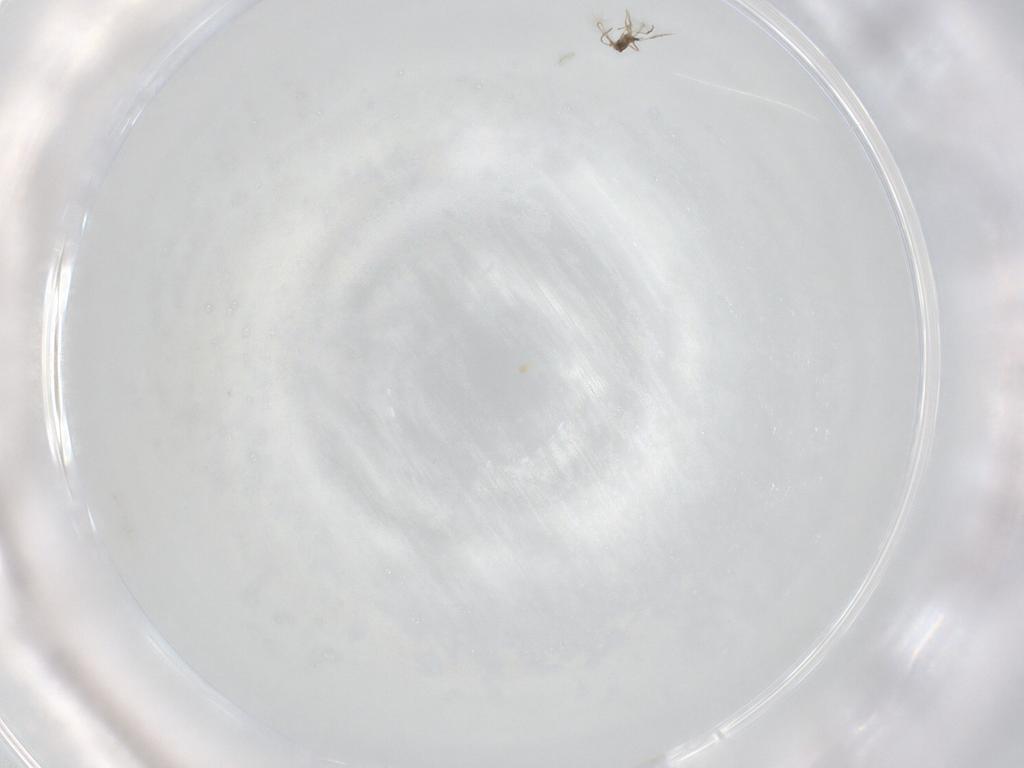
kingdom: Animalia
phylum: Arthropoda
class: Insecta
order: Hymenoptera
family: Mymaridae
